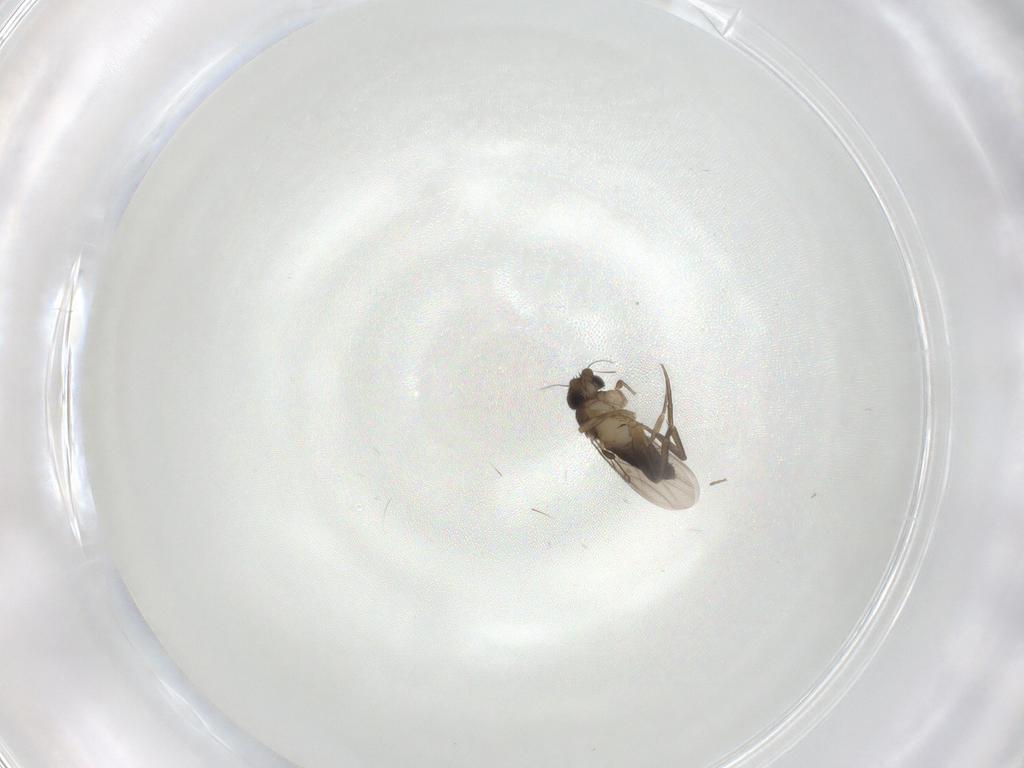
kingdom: Animalia
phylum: Arthropoda
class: Insecta
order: Diptera
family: Phoridae
